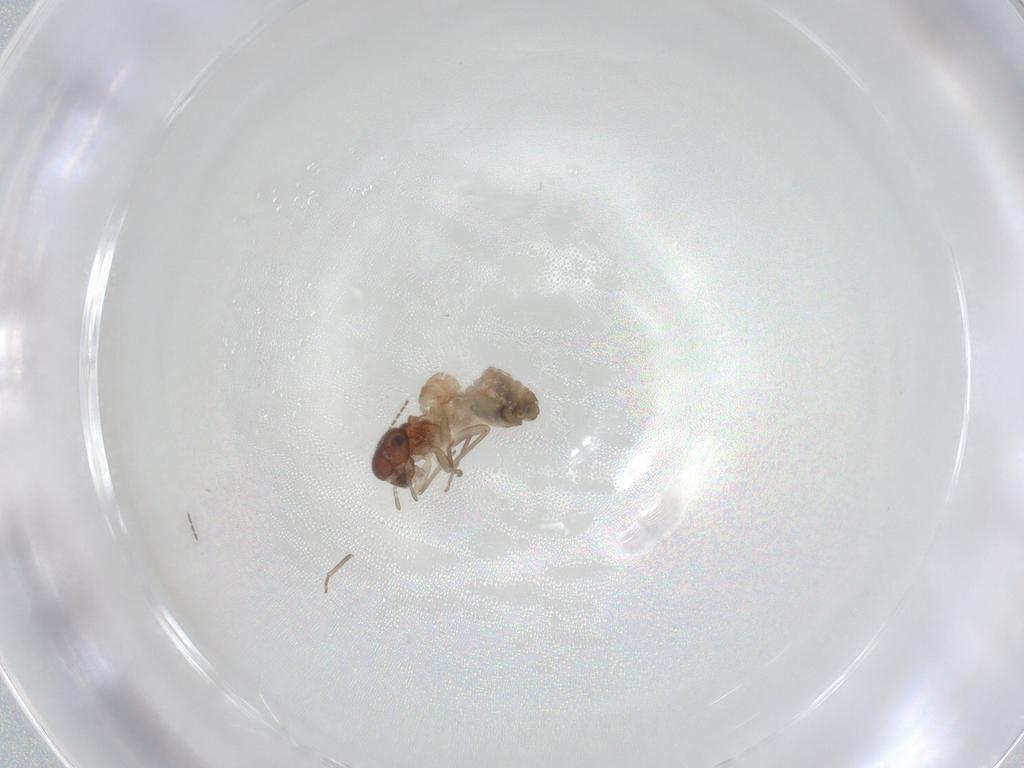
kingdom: Animalia
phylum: Arthropoda
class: Insecta
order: Psocodea
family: Caeciliusidae
